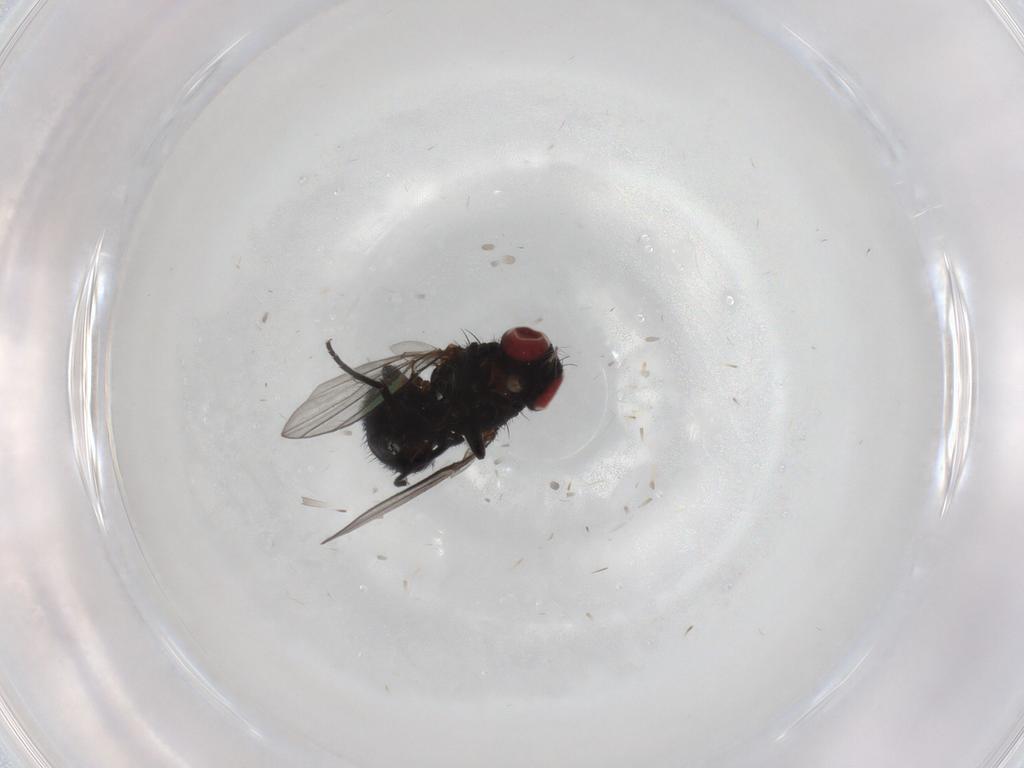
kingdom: Animalia
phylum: Arthropoda
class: Insecta
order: Diptera
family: Agromyzidae
